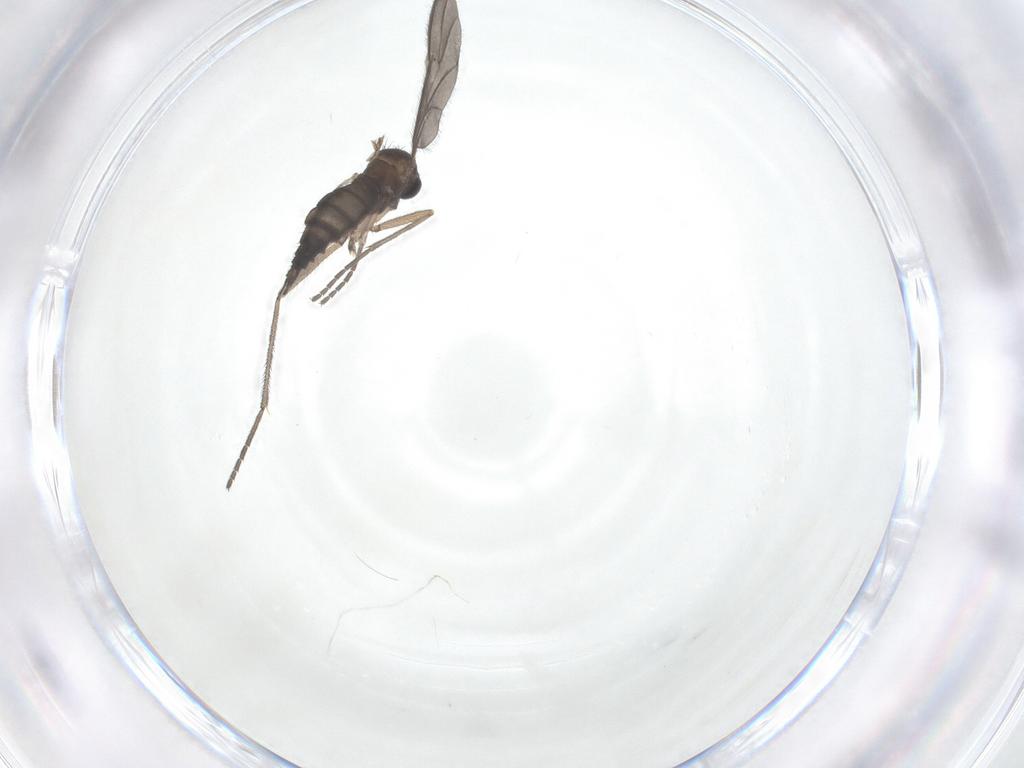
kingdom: Animalia
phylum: Arthropoda
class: Insecta
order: Diptera
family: Sciaridae
